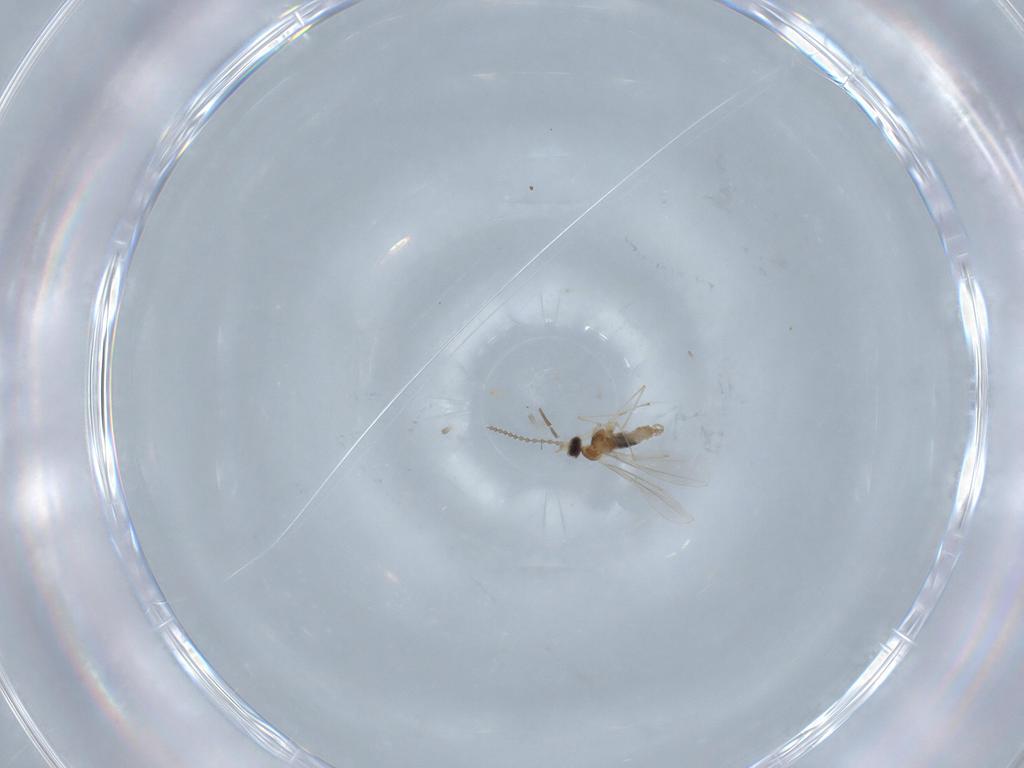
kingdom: Animalia
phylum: Arthropoda
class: Insecta
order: Diptera
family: Cecidomyiidae
